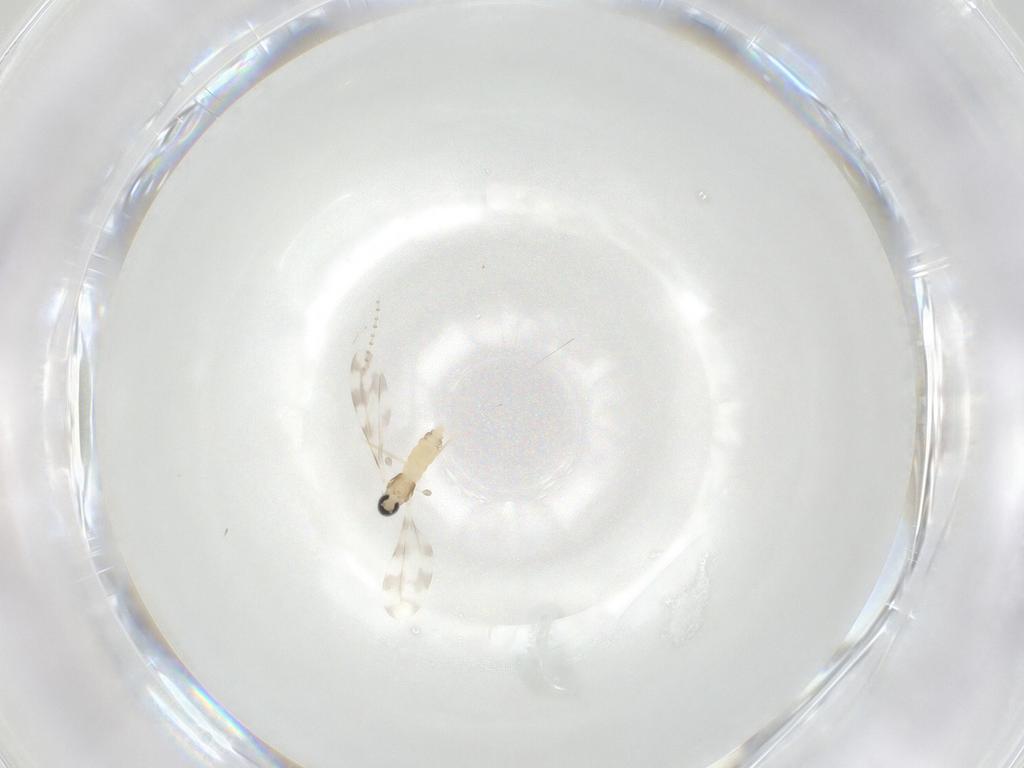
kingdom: Animalia
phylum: Arthropoda
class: Insecta
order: Diptera
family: Cecidomyiidae
